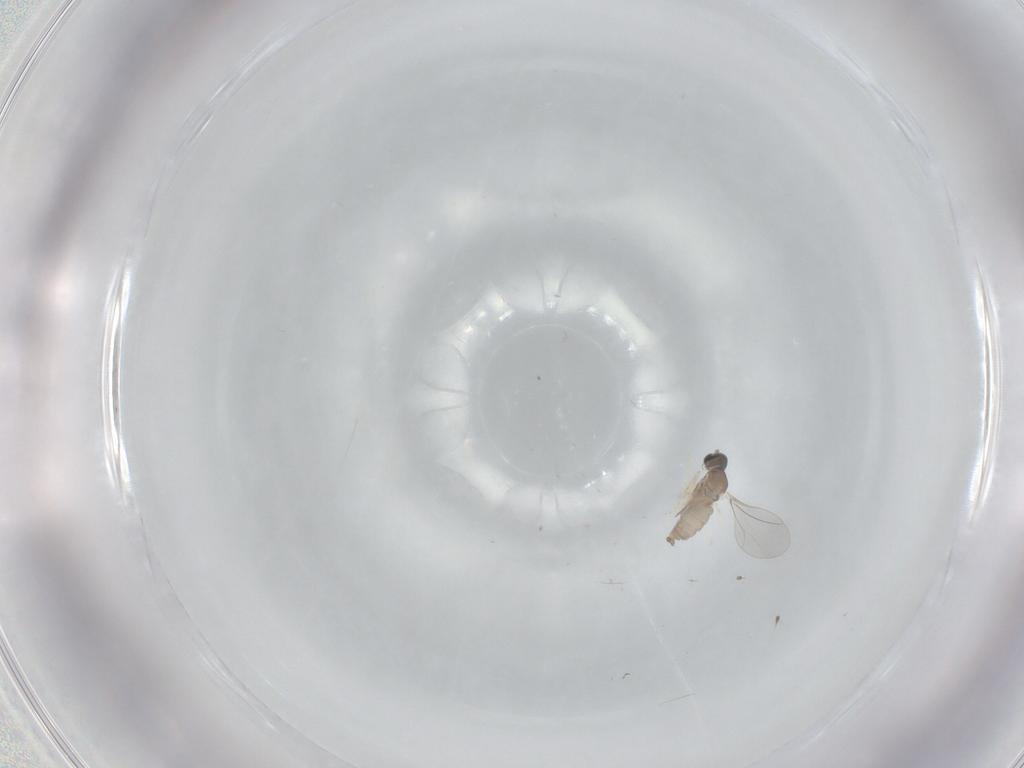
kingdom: Animalia
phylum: Arthropoda
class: Insecta
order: Diptera
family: Cecidomyiidae
